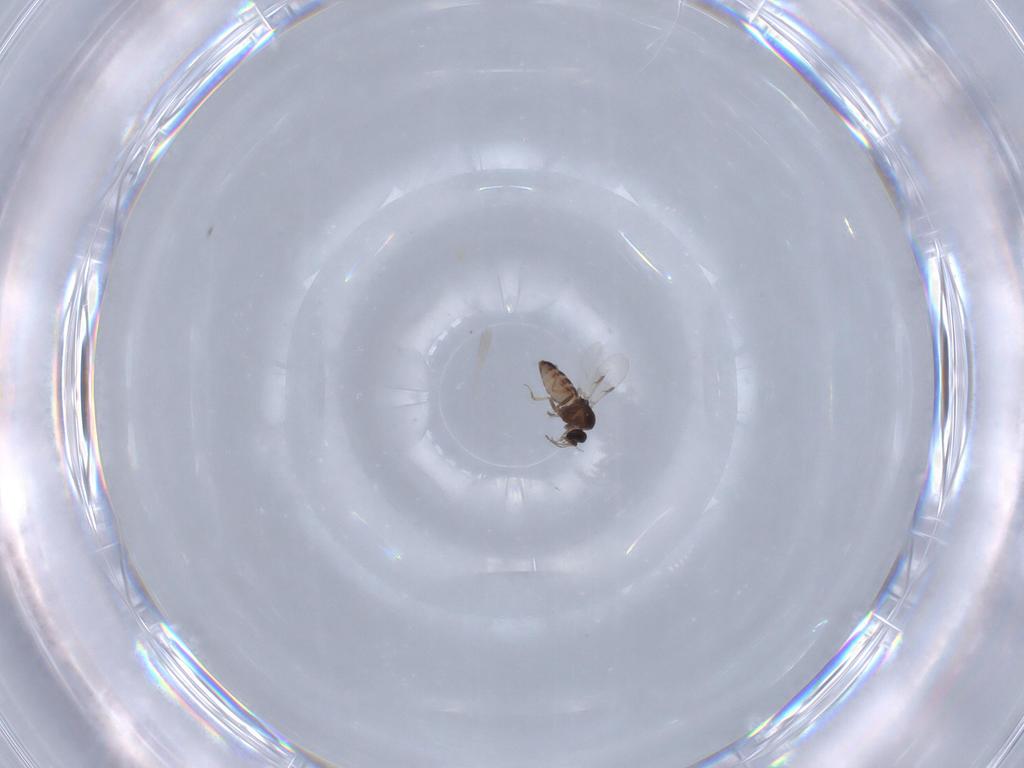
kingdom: Animalia
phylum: Arthropoda
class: Insecta
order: Diptera
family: Ceratopogonidae
